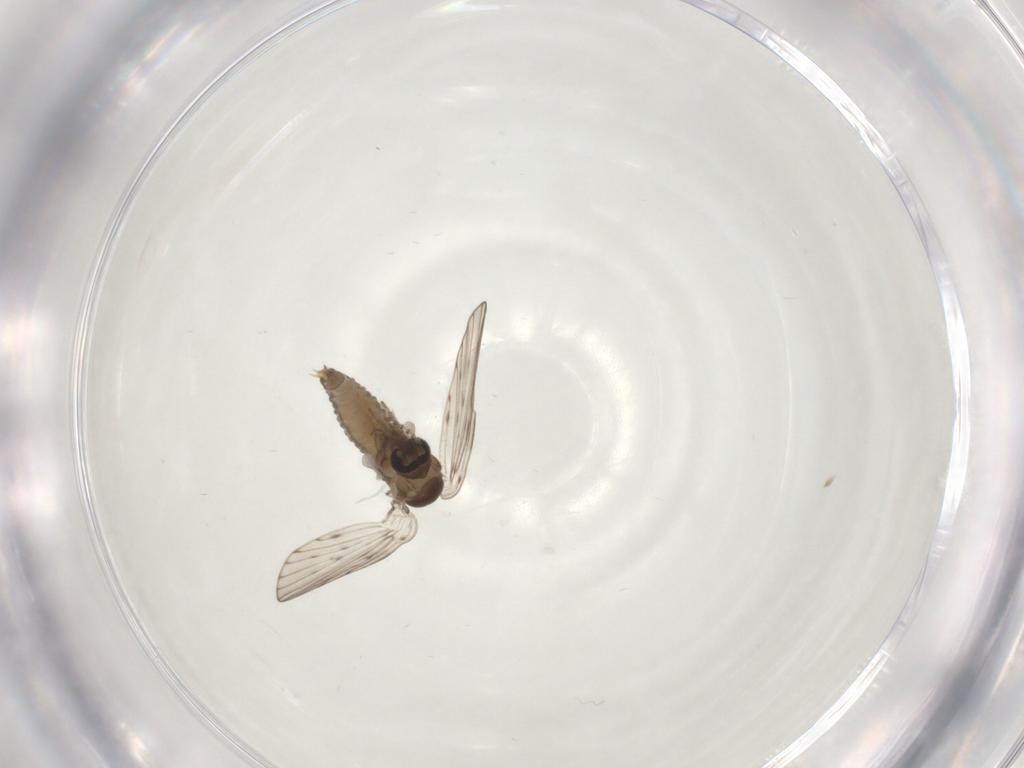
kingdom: Animalia
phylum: Arthropoda
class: Insecta
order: Diptera
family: Psychodidae
